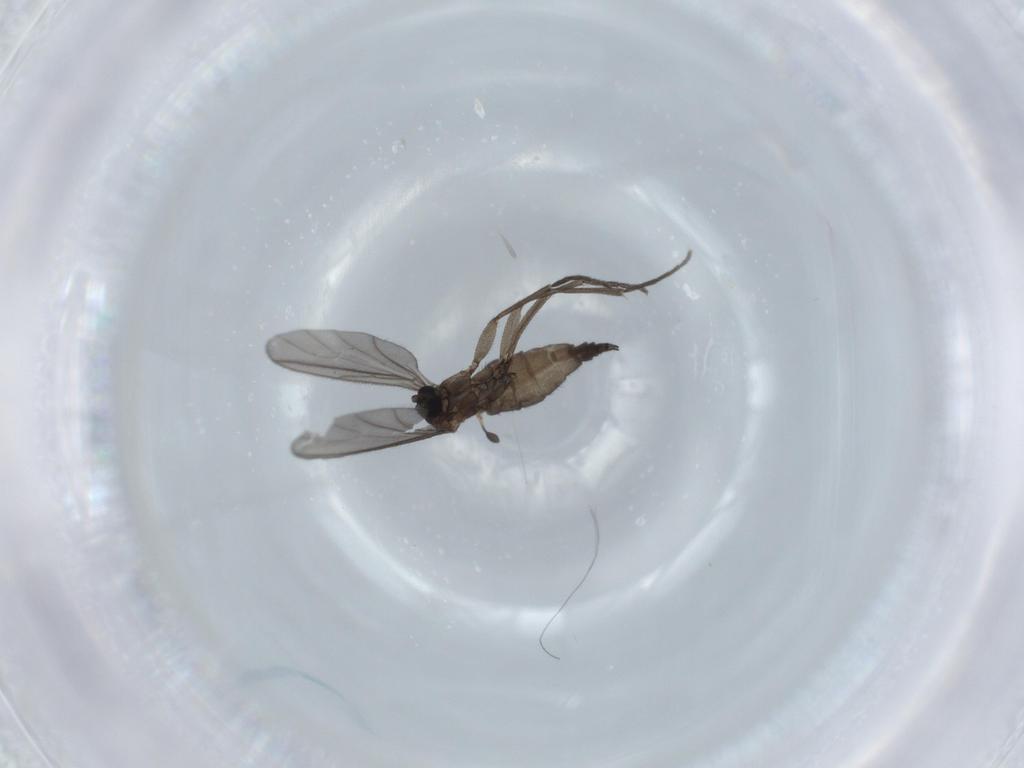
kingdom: Animalia
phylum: Arthropoda
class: Insecta
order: Diptera
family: Sciaridae
